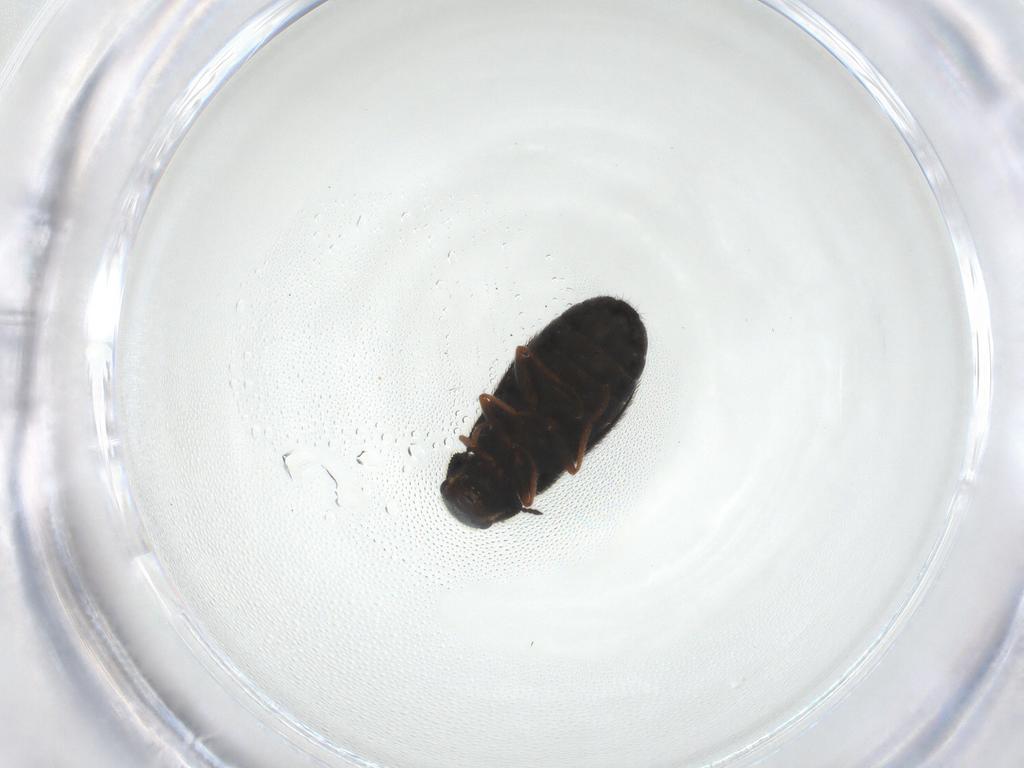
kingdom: Animalia
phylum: Arthropoda
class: Insecta
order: Coleoptera
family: Melyridae
